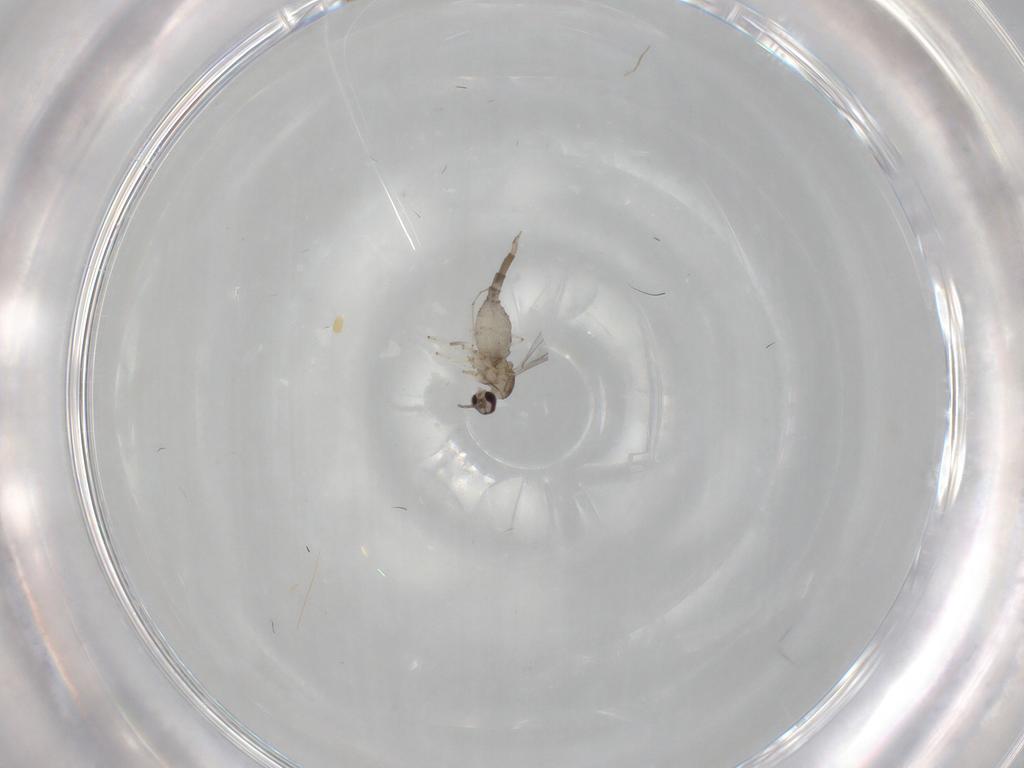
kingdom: Animalia
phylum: Arthropoda
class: Insecta
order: Diptera
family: Cecidomyiidae
